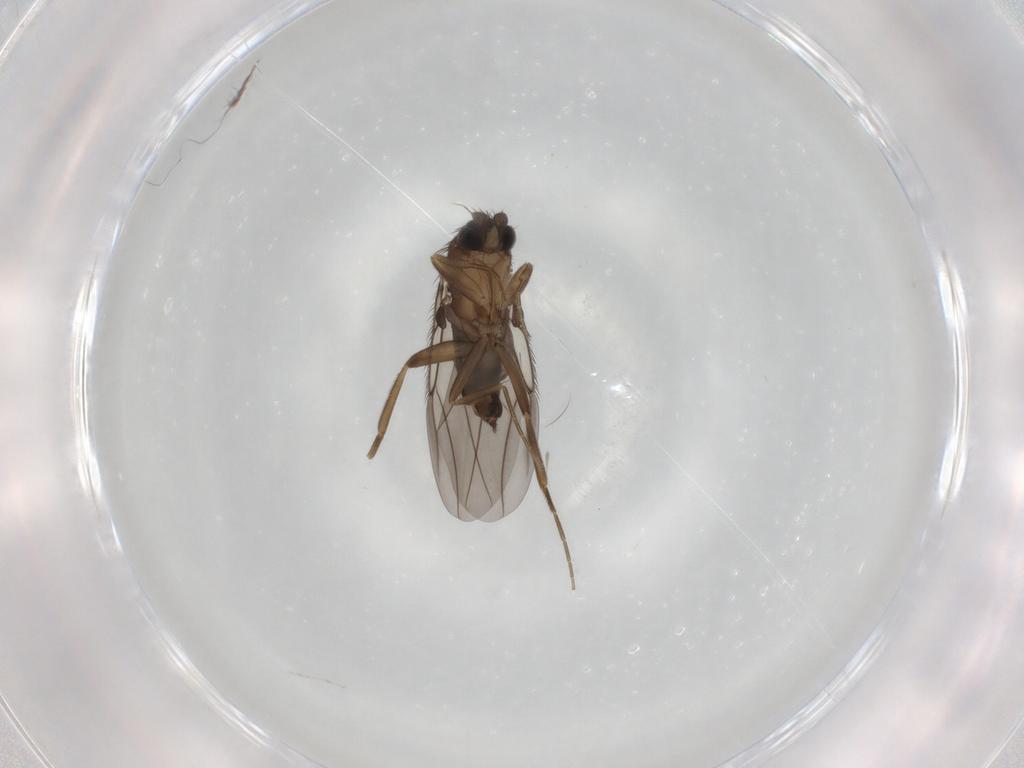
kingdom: Animalia
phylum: Arthropoda
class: Insecta
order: Diptera
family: Phoridae
